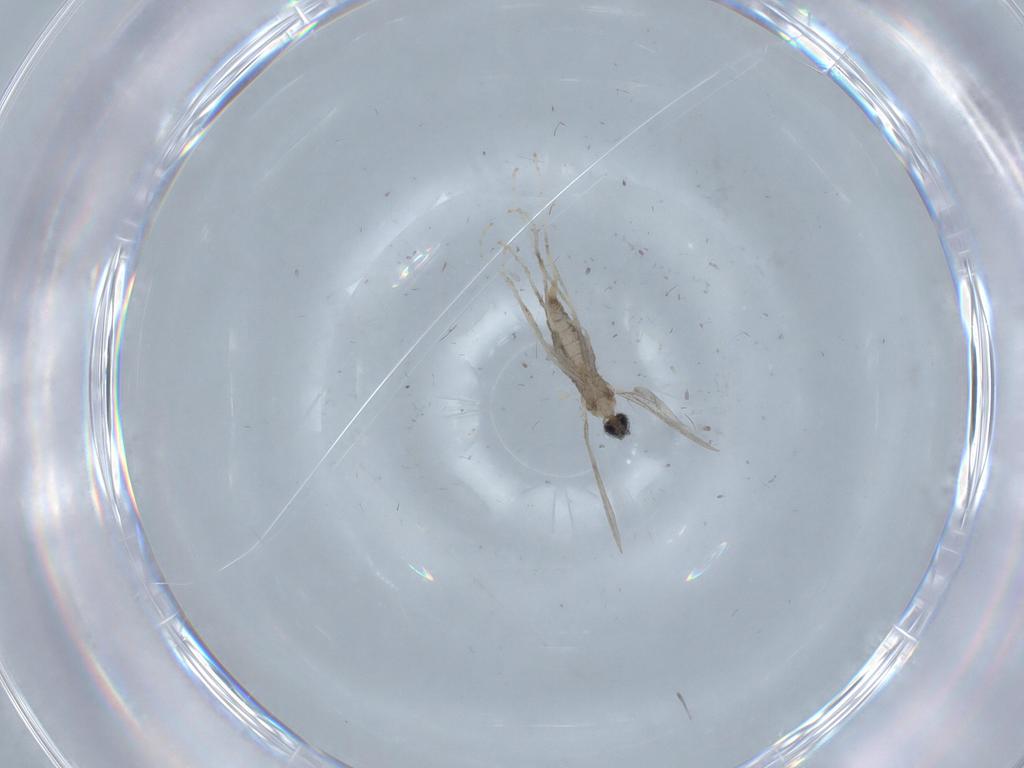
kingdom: Animalia
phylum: Arthropoda
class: Insecta
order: Diptera
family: Cecidomyiidae
